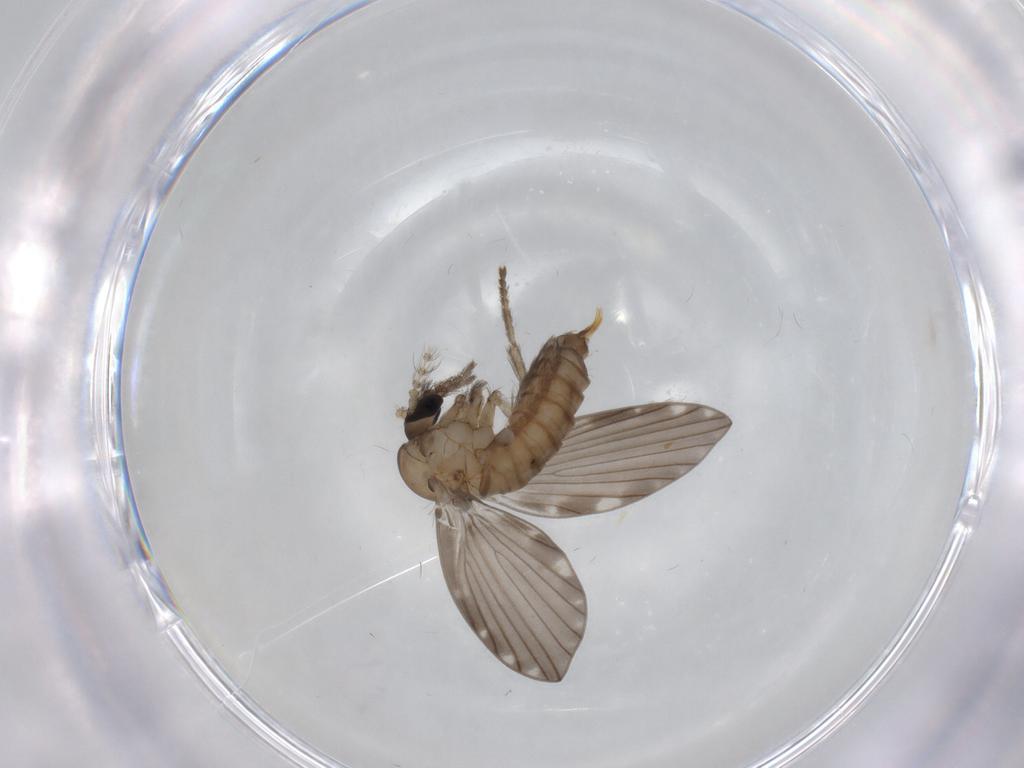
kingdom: Animalia
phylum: Arthropoda
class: Insecta
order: Diptera
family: Psychodidae
